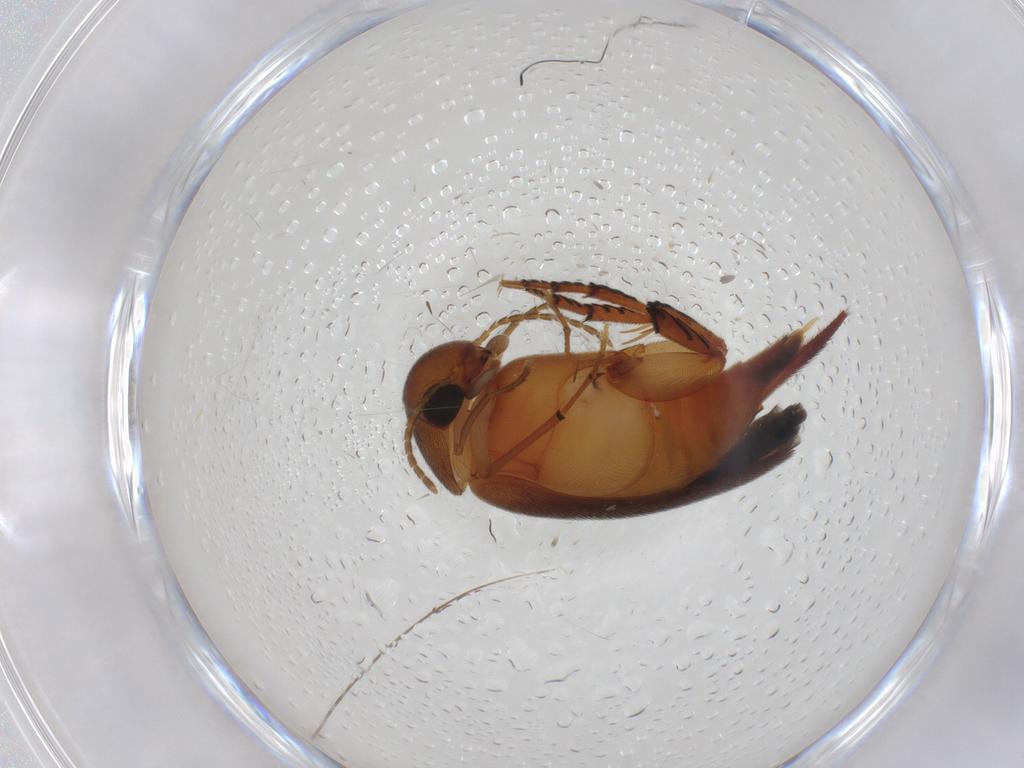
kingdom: Animalia
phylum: Arthropoda
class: Insecta
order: Coleoptera
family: Mordellidae
